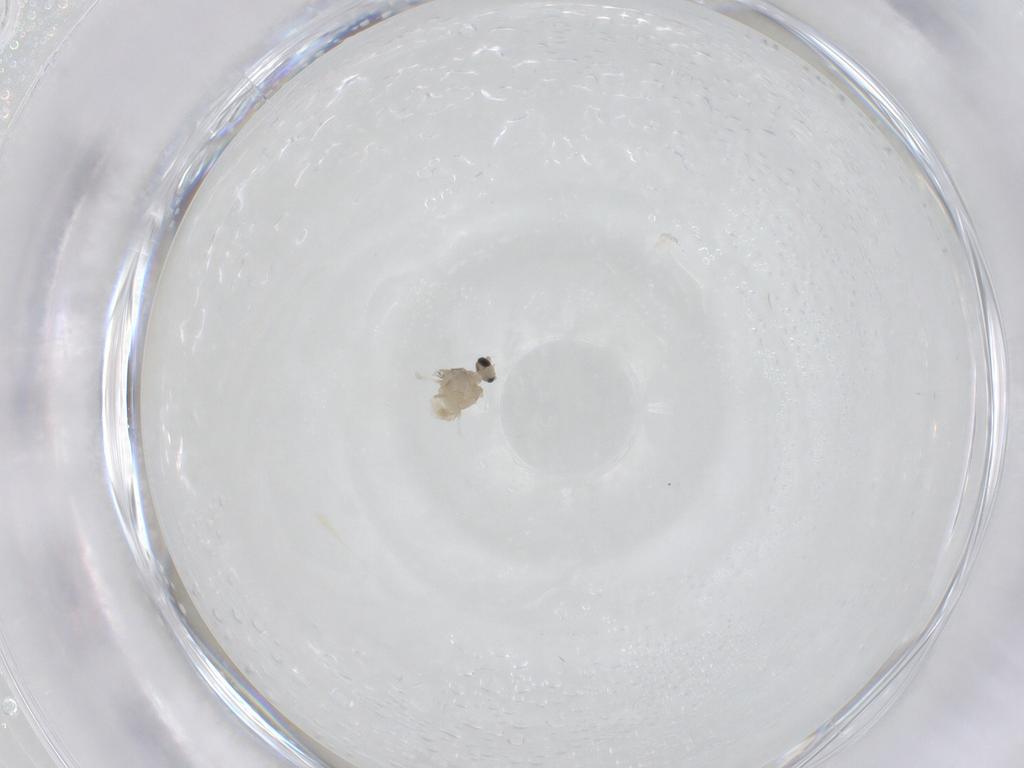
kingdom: Animalia
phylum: Arthropoda
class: Insecta
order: Diptera
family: Cecidomyiidae
